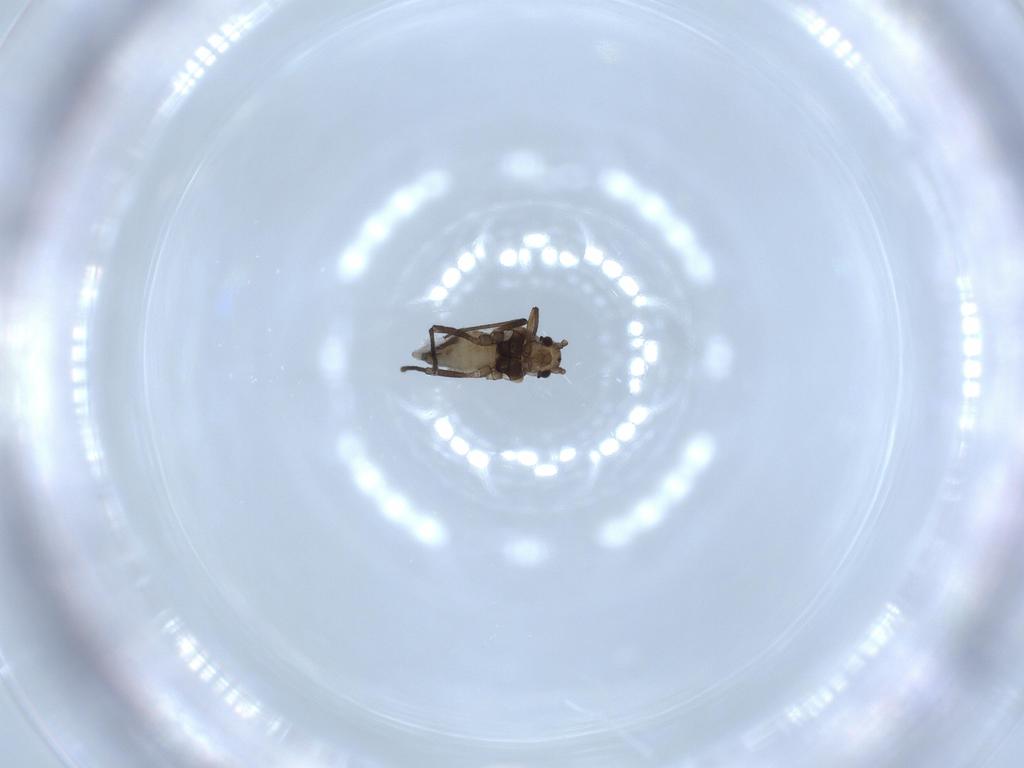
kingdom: Animalia
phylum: Arthropoda
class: Insecta
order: Hemiptera
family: Aphididae
